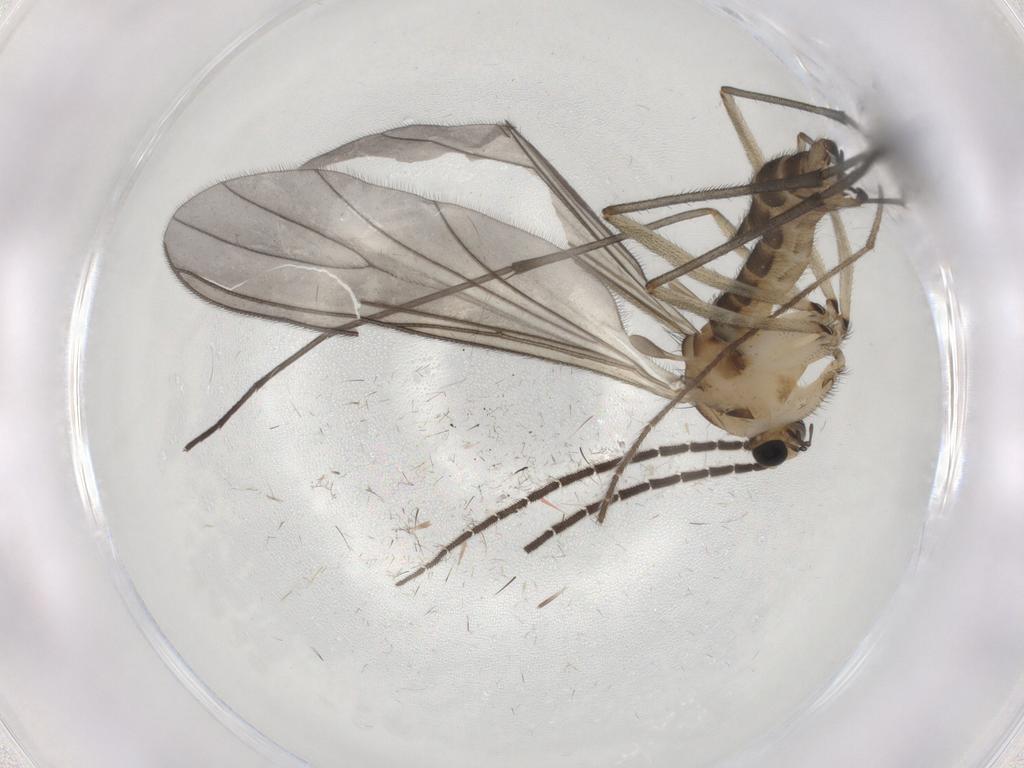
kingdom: Animalia
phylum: Arthropoda
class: Insecta
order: Diptera
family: Sciaridae
